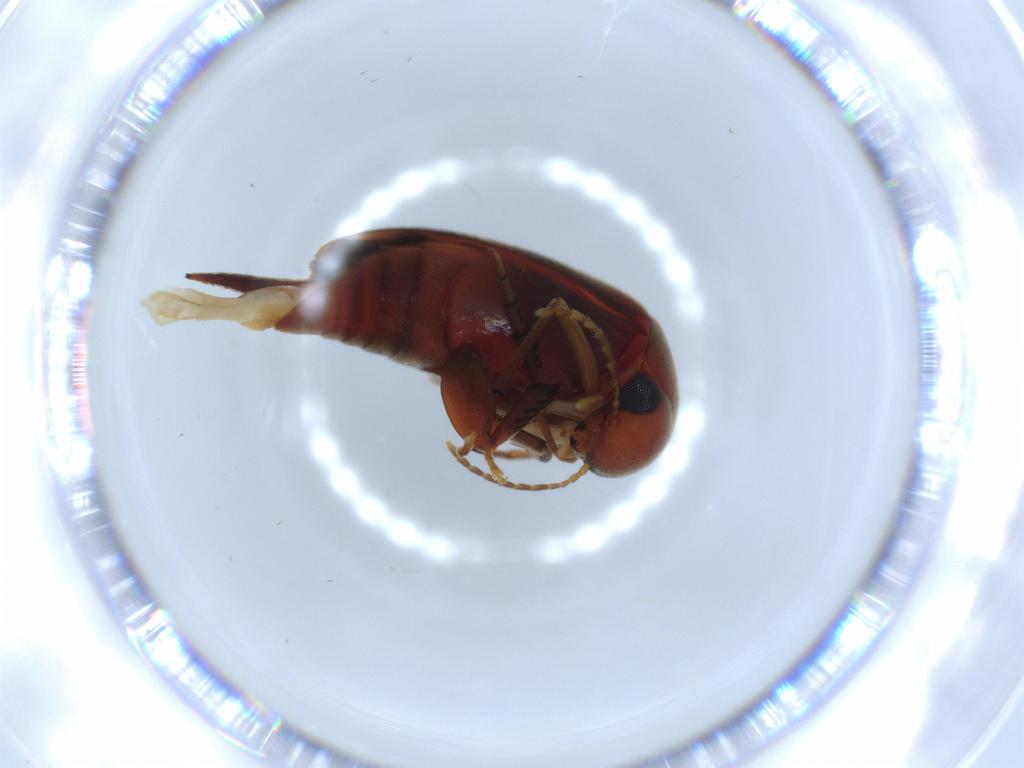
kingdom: Animalia
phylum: Arthropoda
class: Insecta
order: Hemiptera
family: Issidae
